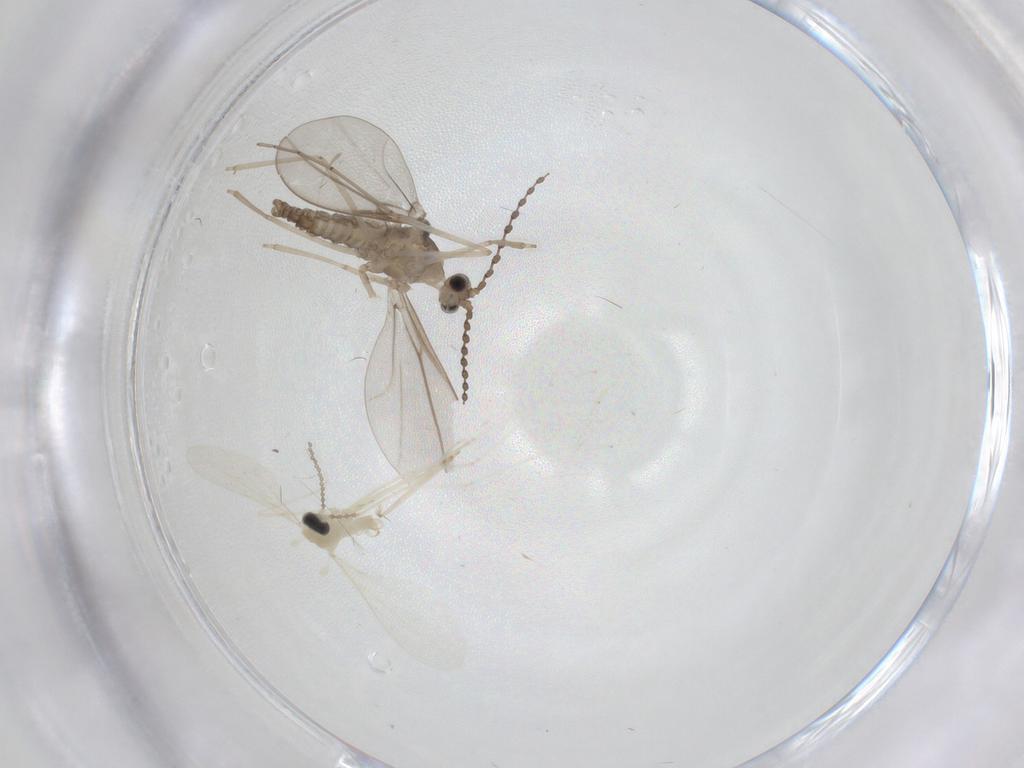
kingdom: Animalia
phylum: Arthropoda
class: Insecta
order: Diptera
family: Cecidomyiidae
